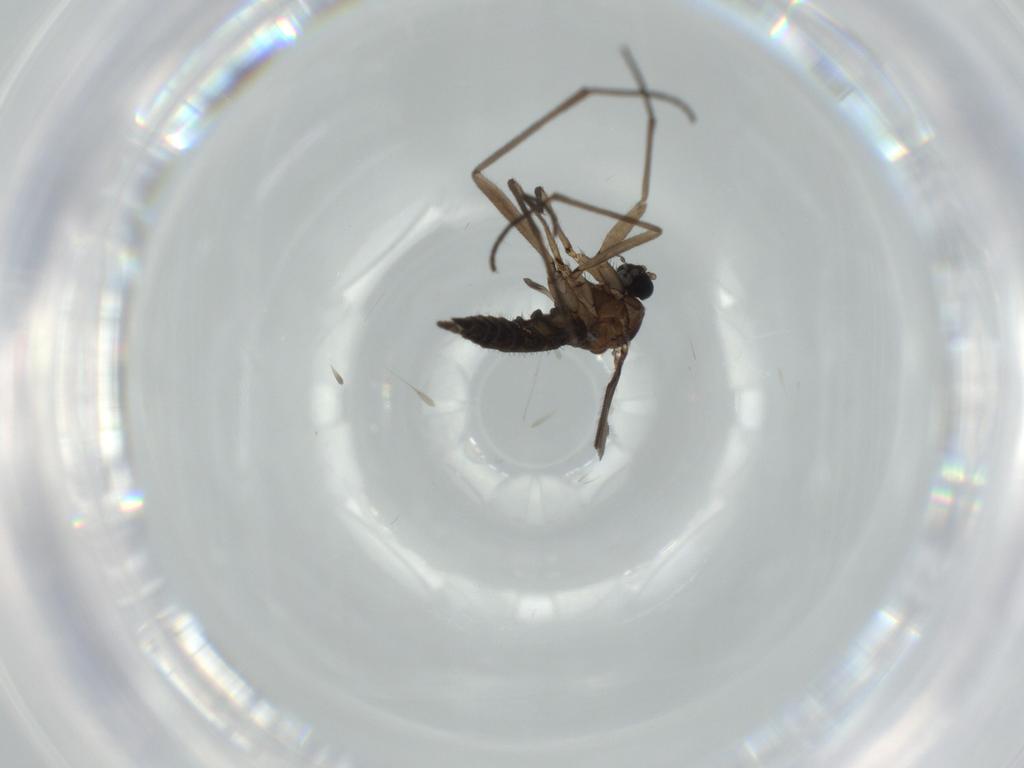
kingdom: Animalia
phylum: Arthropoda
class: Insecta
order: Diptera
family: Sciaridae
